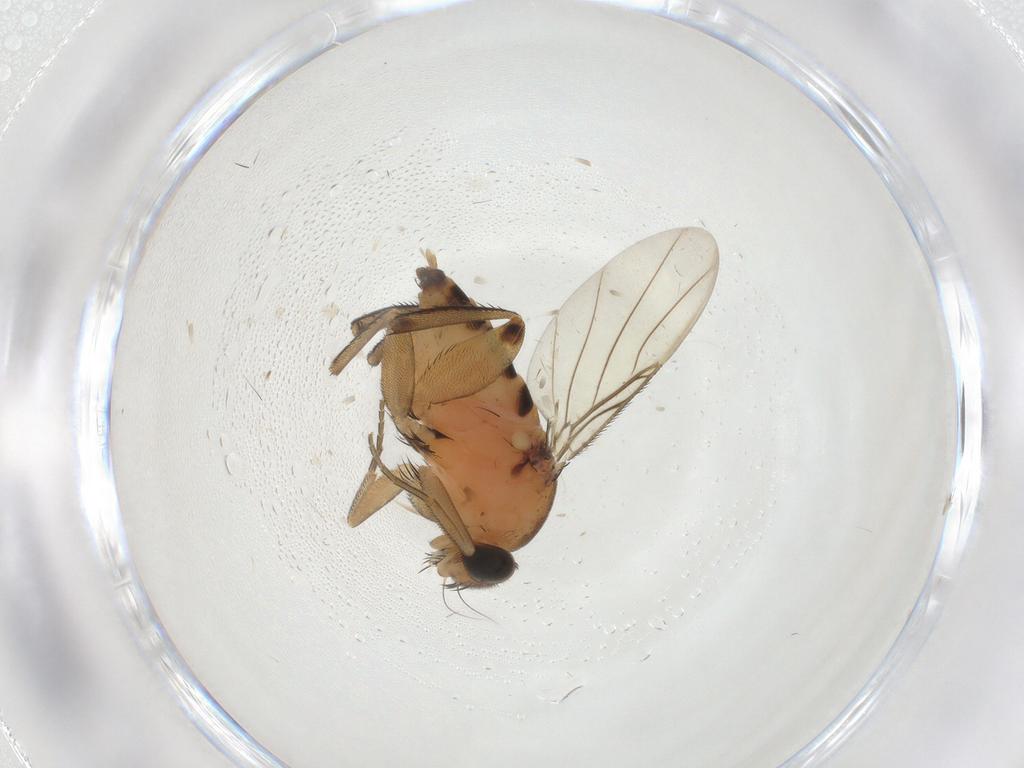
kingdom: Animalia
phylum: Arthropoda
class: Insecta
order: Diptera
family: Phoridae
